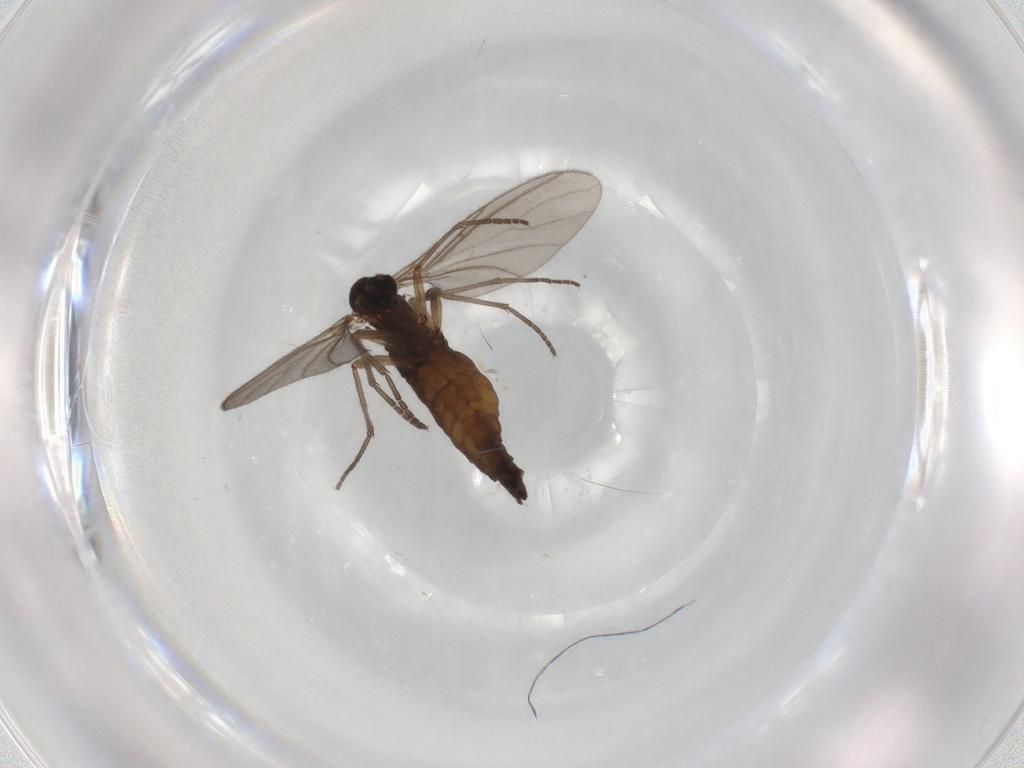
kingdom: Animalia
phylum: Arthropoda
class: Insecta
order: Diptera
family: Sciaridae
